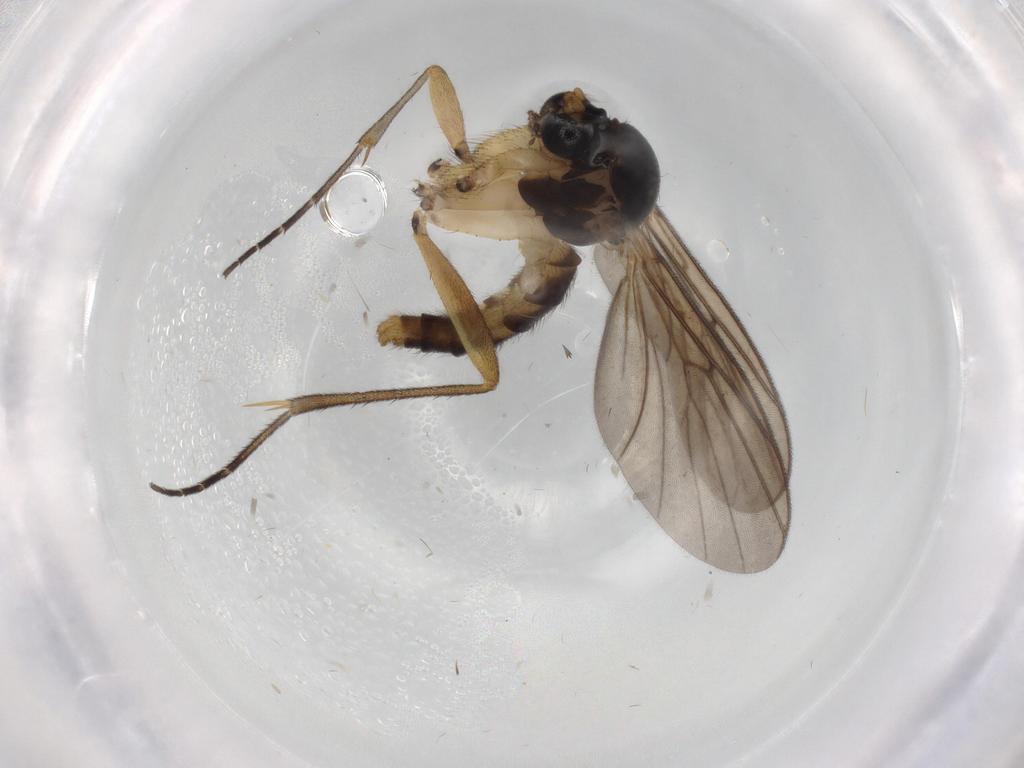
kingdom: Animalia
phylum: Arthropoda
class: Insecta
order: Diptera
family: Phoridae
